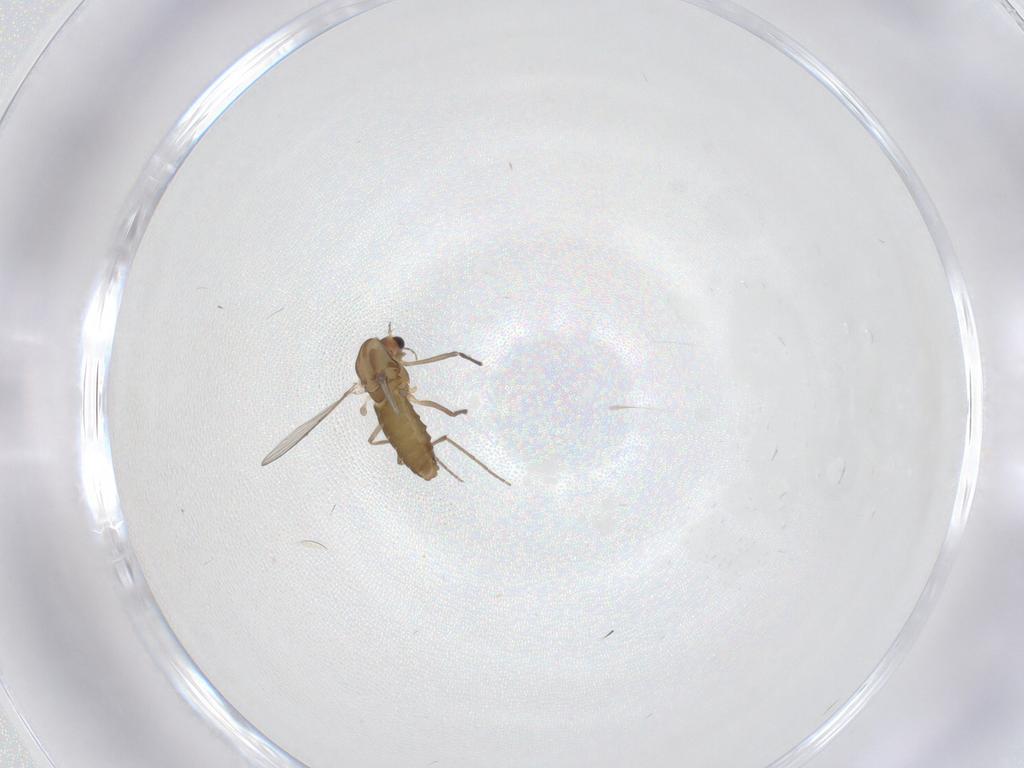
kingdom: Animalia
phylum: Arthropoda
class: Insecta
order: Diptera
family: Chironomidae
